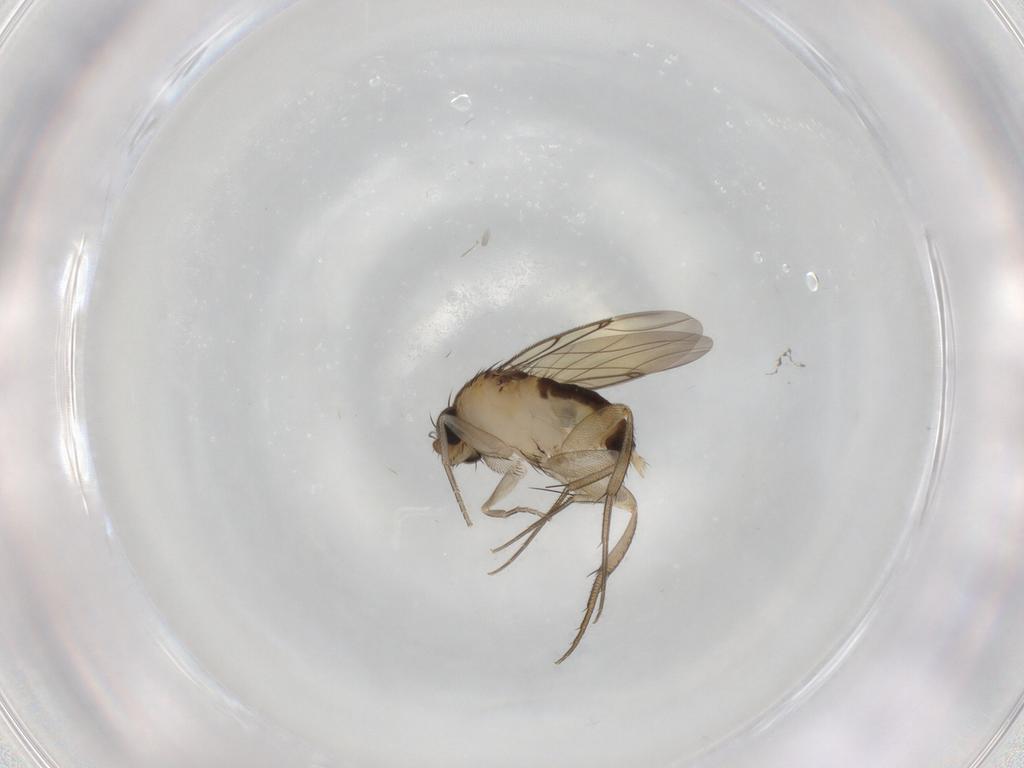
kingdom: Animalia
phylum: Arthropoda
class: Insecta
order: Diptera
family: Phoridae
